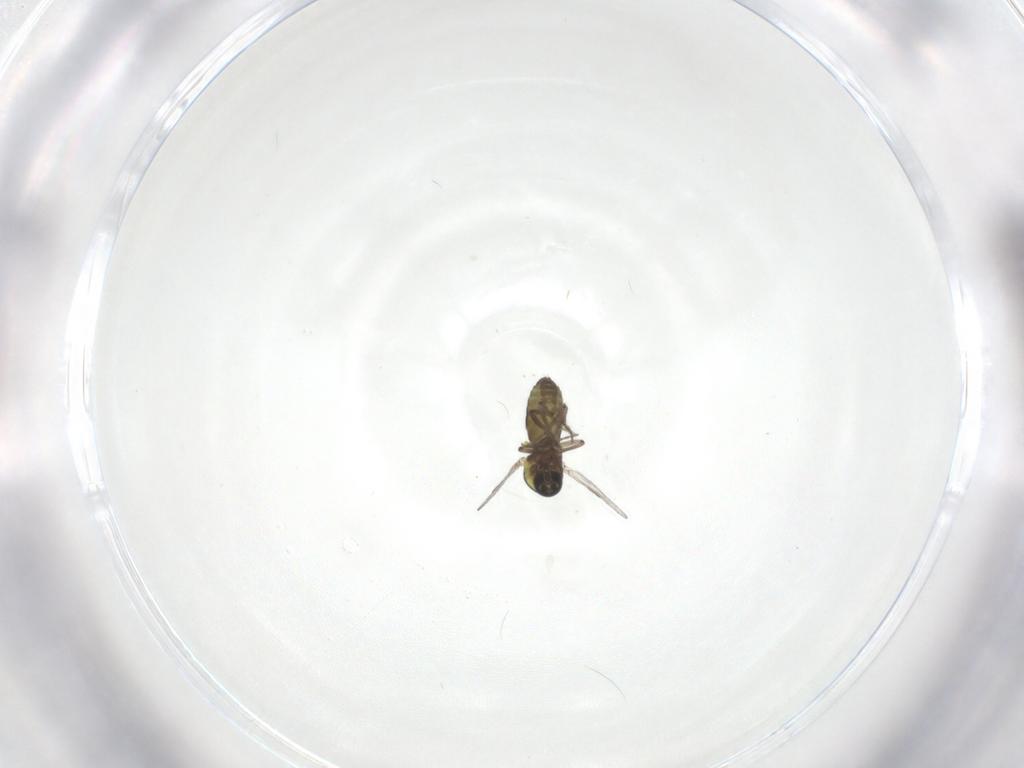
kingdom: Animalia
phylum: Arthropoda
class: Insecta
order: Diptera
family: Ceratopogonidae
